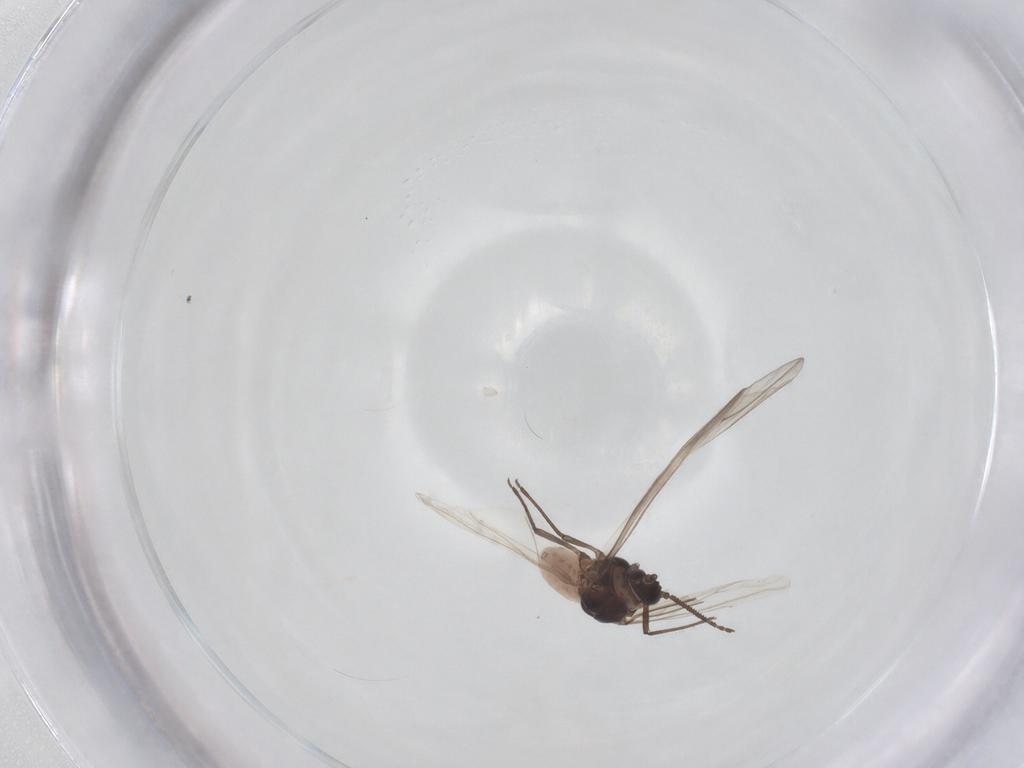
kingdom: Animalia
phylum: Arthropoda
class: Insecta
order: Hemiptera
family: Aphididae
